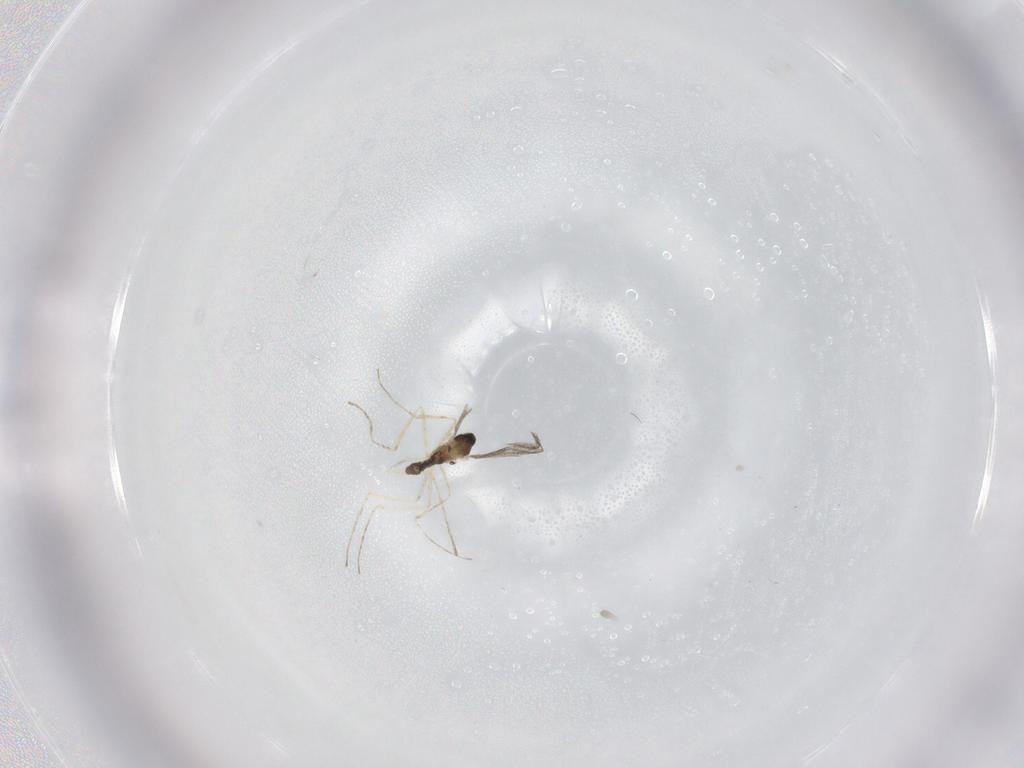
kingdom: Animalia
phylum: Arthropoda
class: Insecta
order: Diptera
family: Cecidomyiidae
